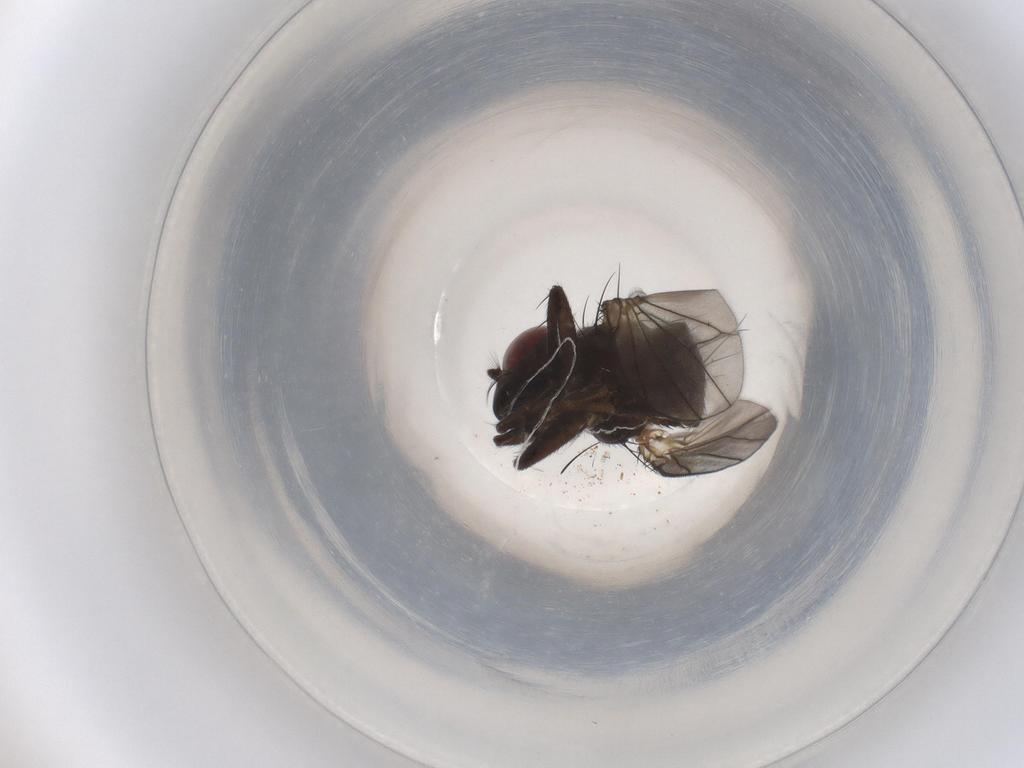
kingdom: Animalia
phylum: Arthropoda
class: Insecta
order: Diptera
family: Ephydridae
